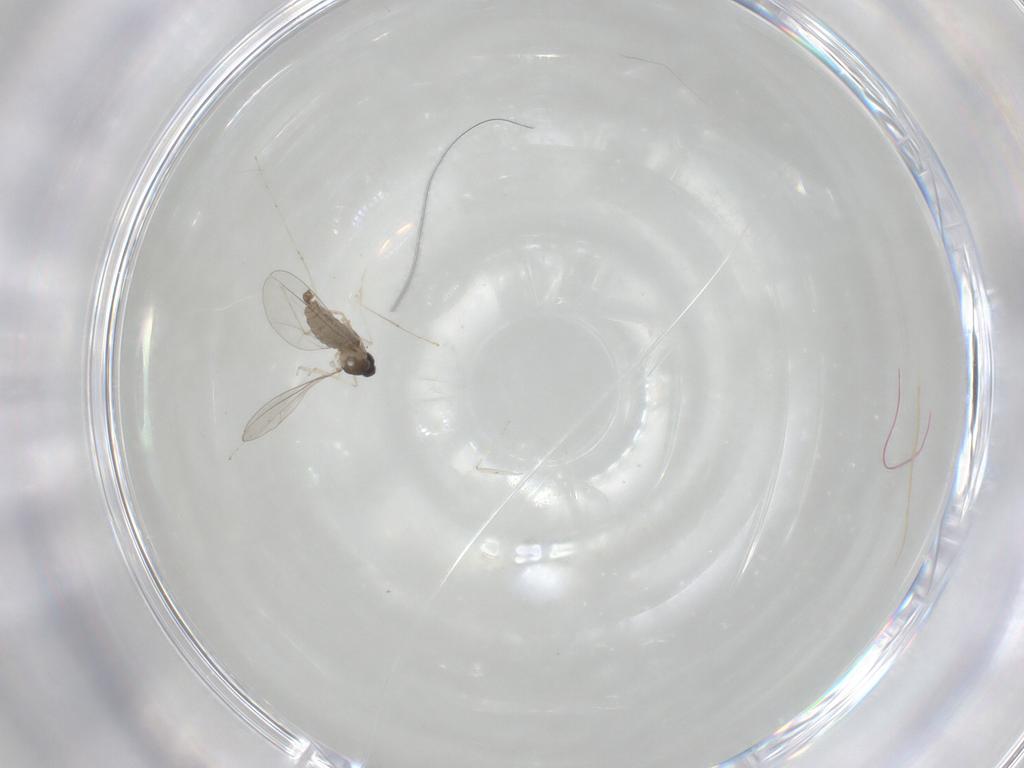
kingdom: Animalia
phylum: Arthropoda
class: Insecta
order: Diptera
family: Cecidomyiidae
